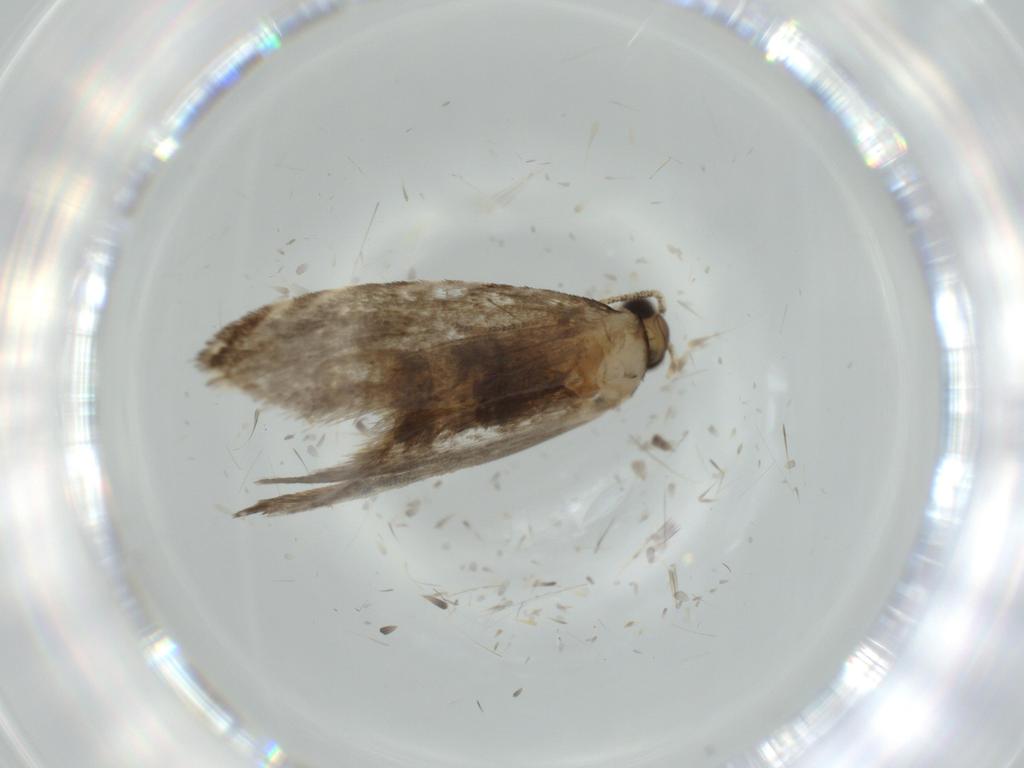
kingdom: Animalia
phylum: Arthropoda
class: Insecta
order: Lepidoptera
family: Tineidae
